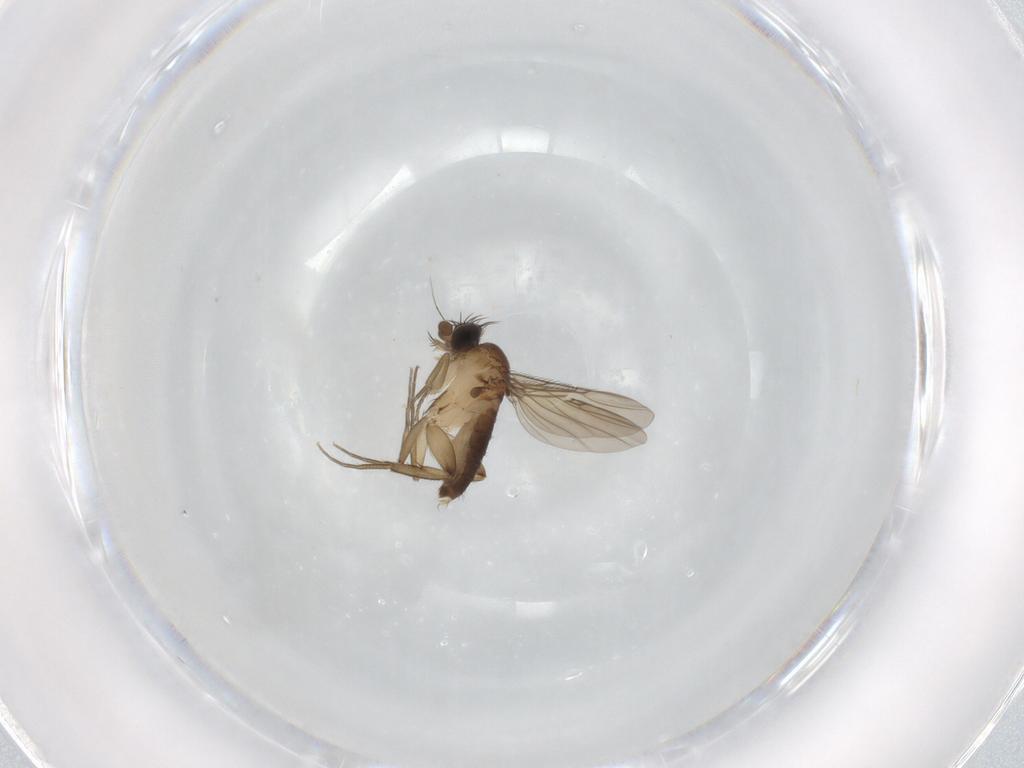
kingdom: Animalia
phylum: Arthropoda
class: Insecta
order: Diptera
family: Phoridae
